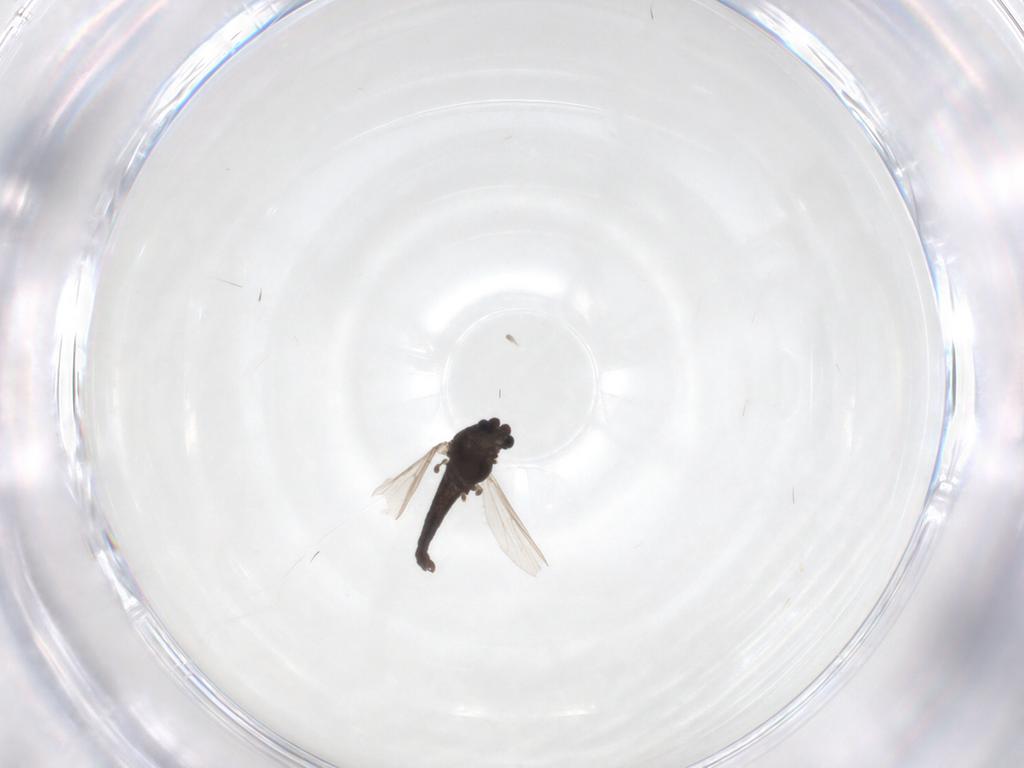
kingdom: Animalia
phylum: Arthropoda
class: Insecta
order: Diptera
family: Chironomidae
